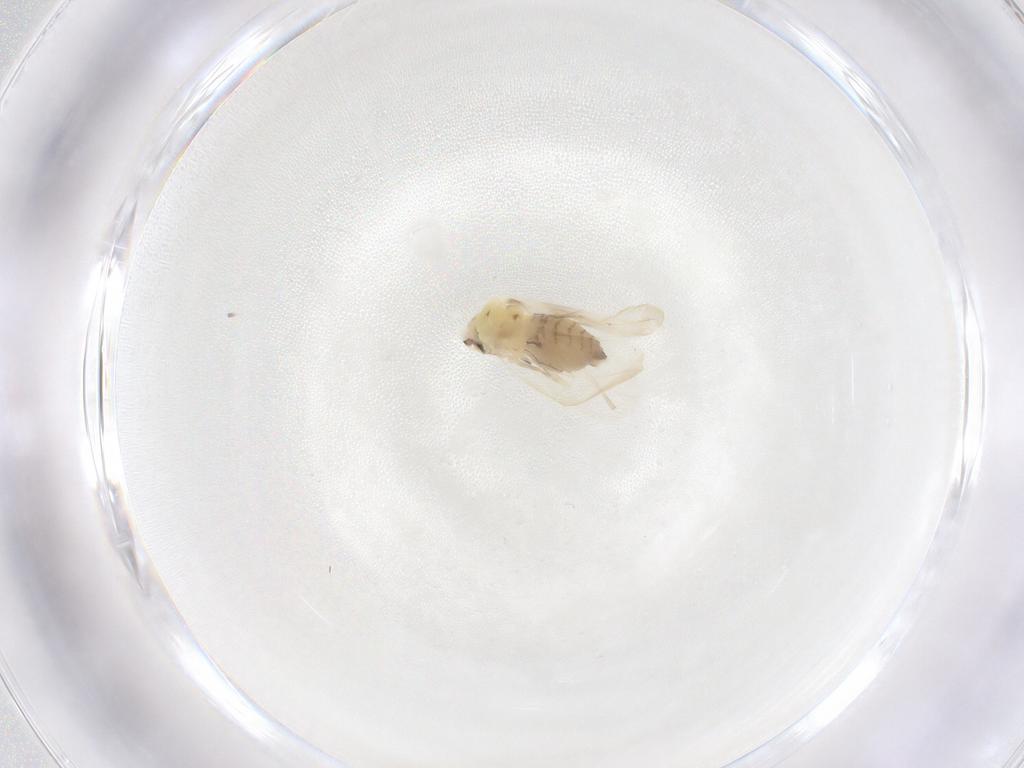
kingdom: Animalia
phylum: Arthropoda
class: Insecta
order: Hemiptera
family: Aleyrodidae
